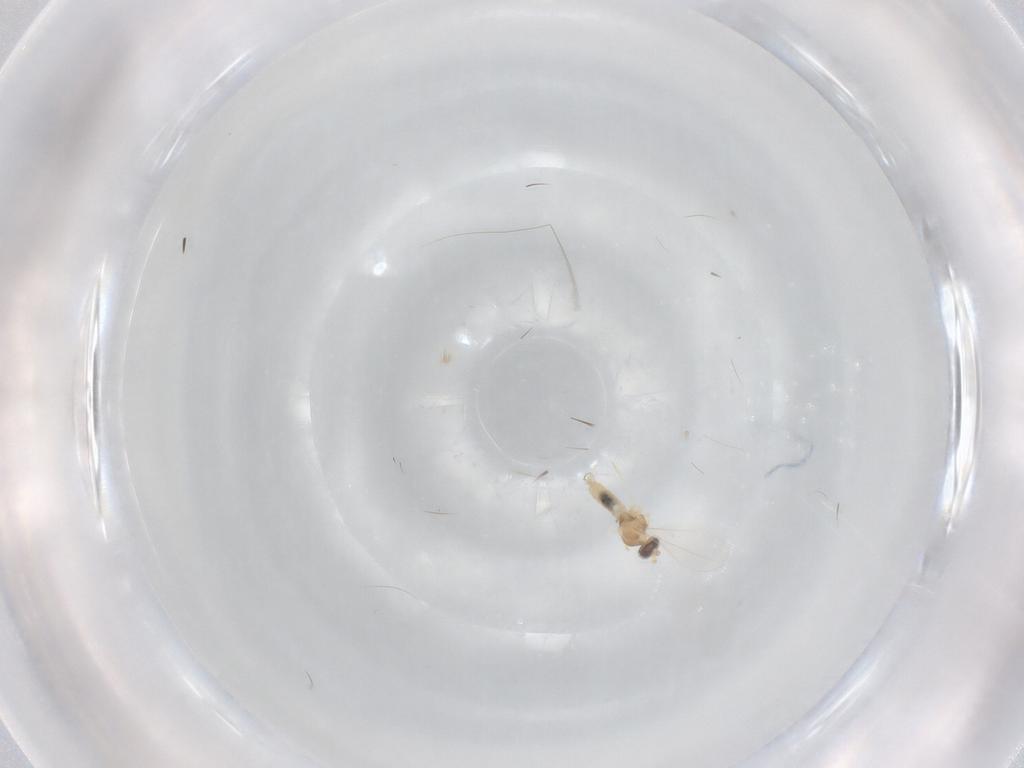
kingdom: Animalia
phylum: Arthropoda
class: Insecta
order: Diptera
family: Cecidomyiidae
